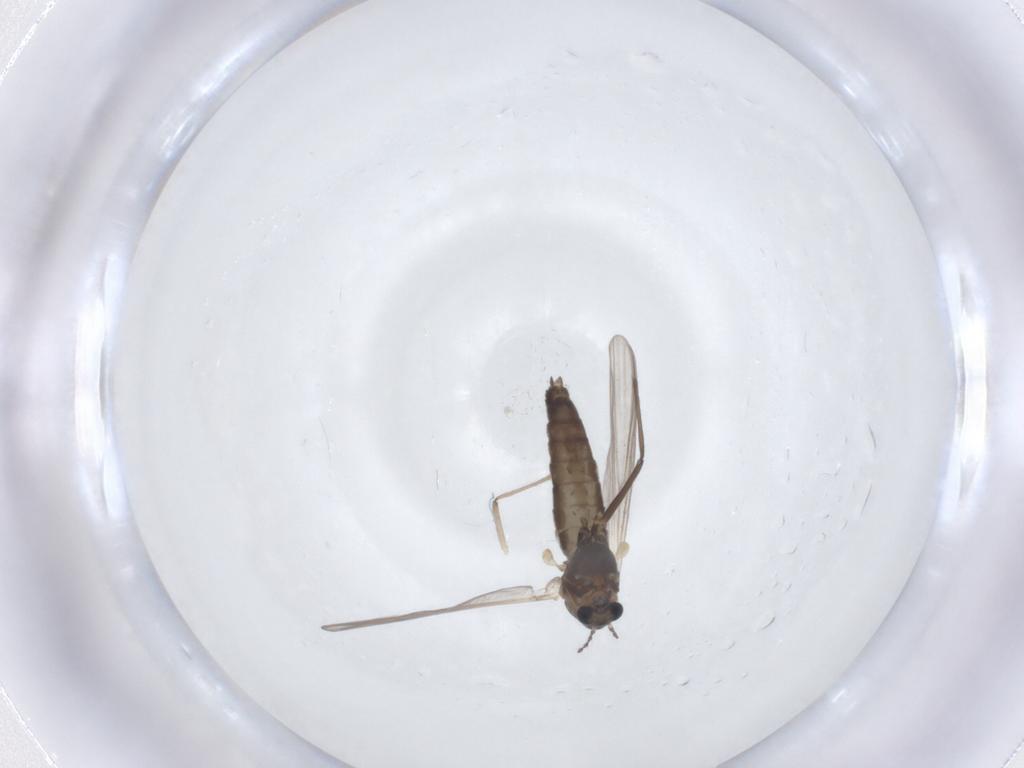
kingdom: Animalia
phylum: Arthropoda
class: Insecta
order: Diptera
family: Chironomidae
